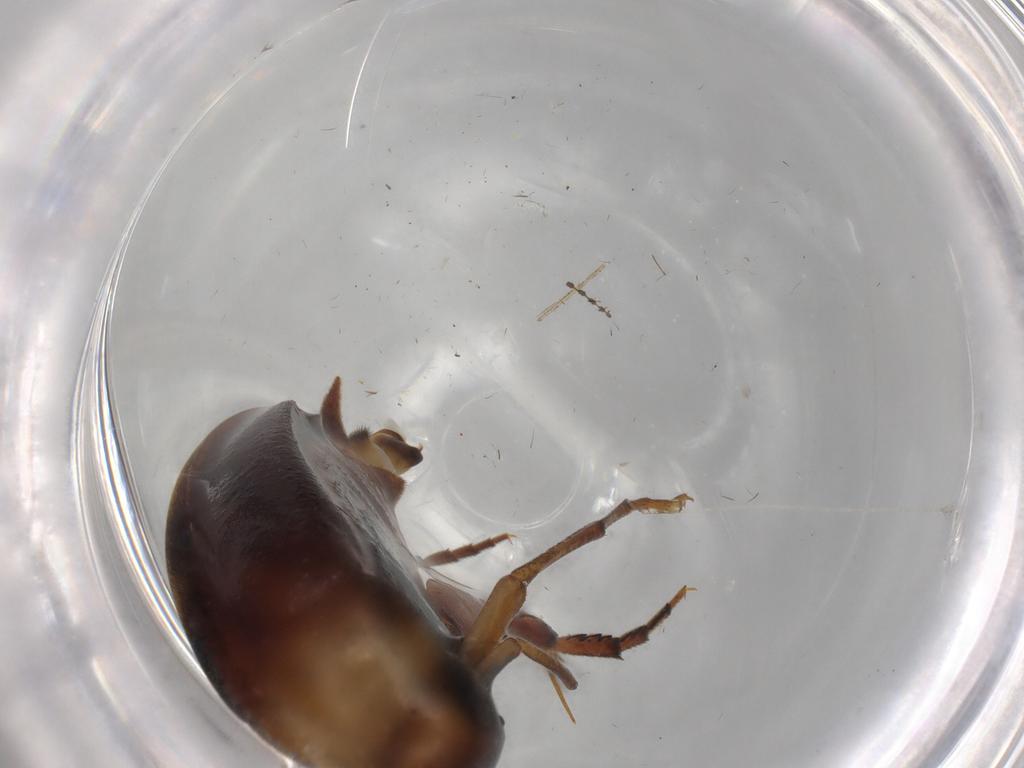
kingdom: Animalia
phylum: Arthropoda
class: Insecta
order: Coleoptera
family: Mordellidae
